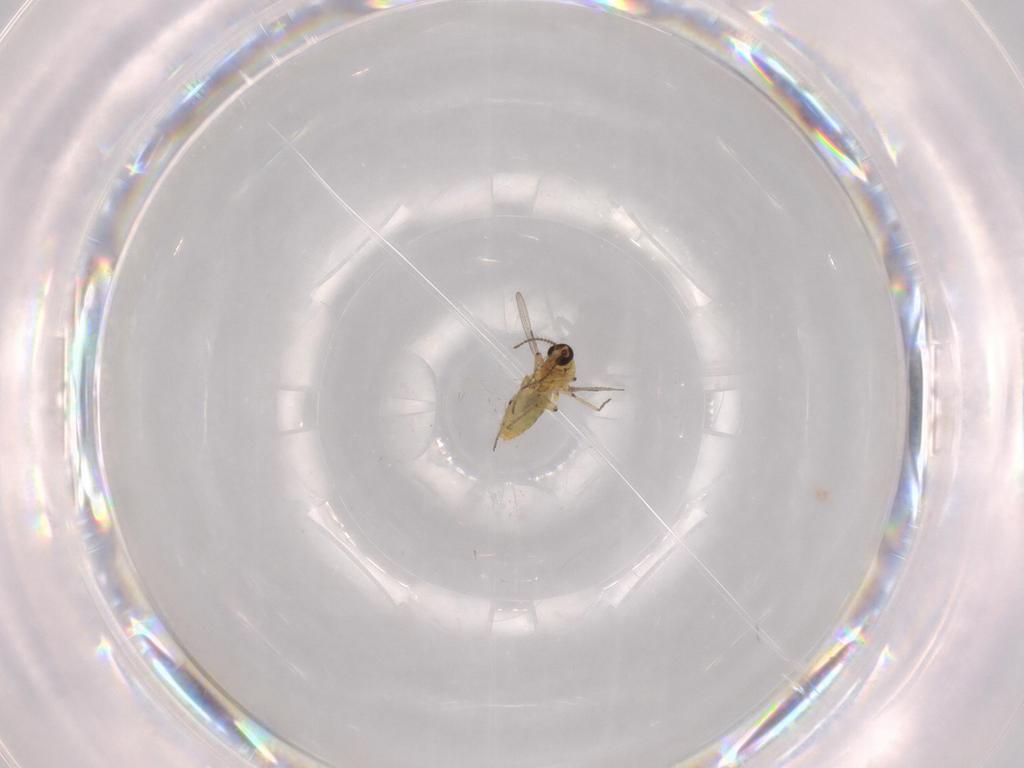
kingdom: Animalia
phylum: Arthropoda
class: Insecta
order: Diptera
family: Ceratopogonidae
